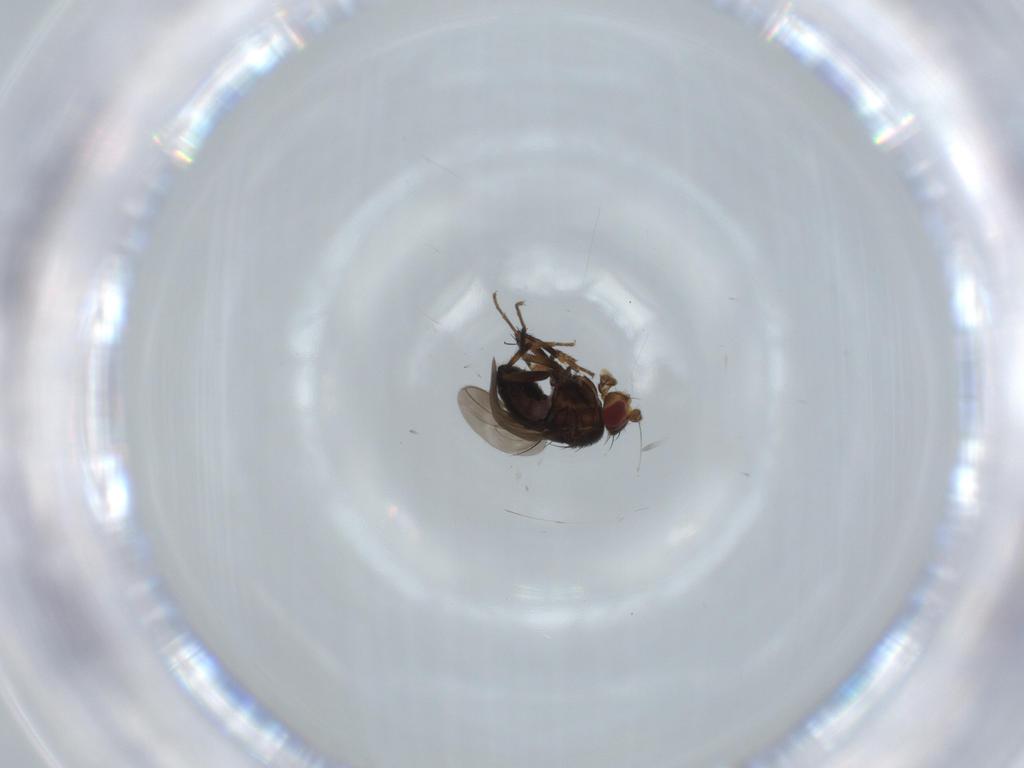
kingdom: Animalia
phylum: Arthropoda
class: Insecta
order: Diptera
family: Sphaeroceridae
